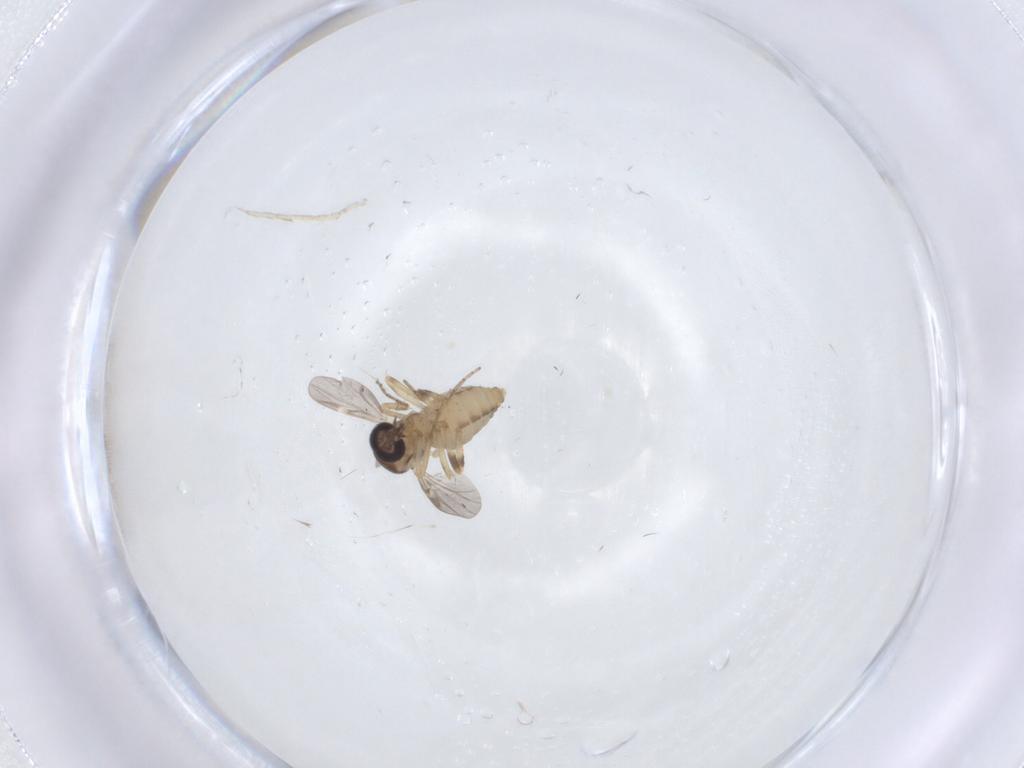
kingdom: Animalia
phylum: Arthropoda
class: Insecta
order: Diptera
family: Ceratopogonidae
